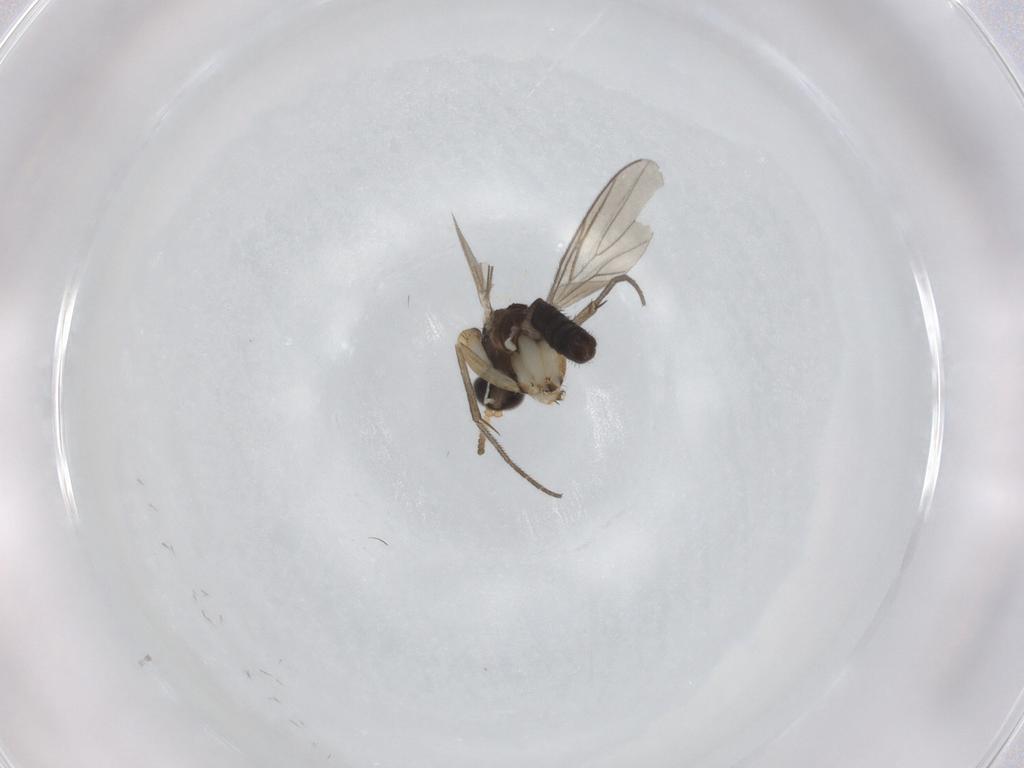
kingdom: Animalia
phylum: Arthropoda
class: Insecta
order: Diptera
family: Mycetophilidae
